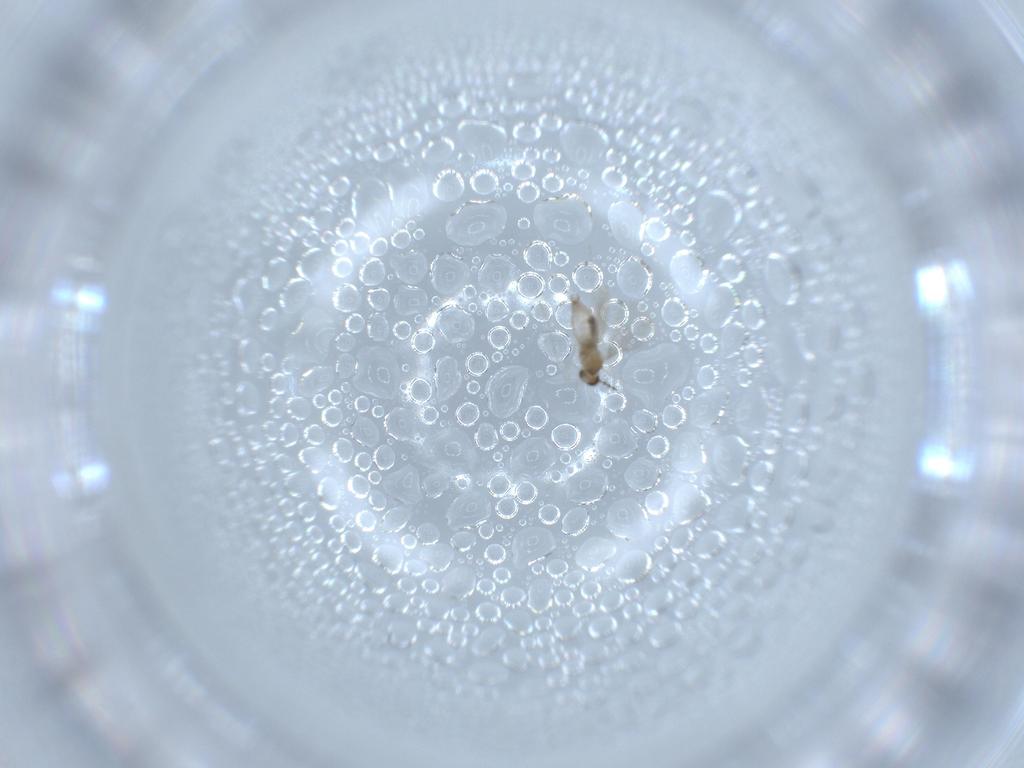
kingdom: Animalia
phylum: Arthropoda
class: Insecta
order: Diptera
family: Cecidomyiidae
